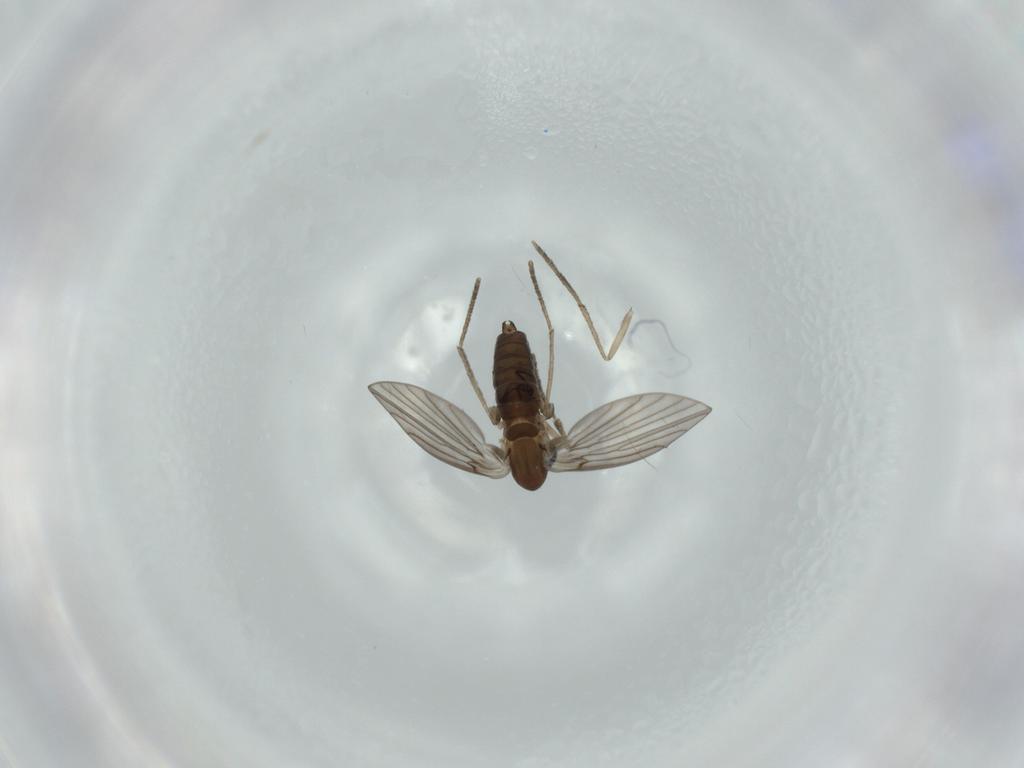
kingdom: Animalia
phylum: Arthropoda
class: Insecta
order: Diptera
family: Psychodidae
